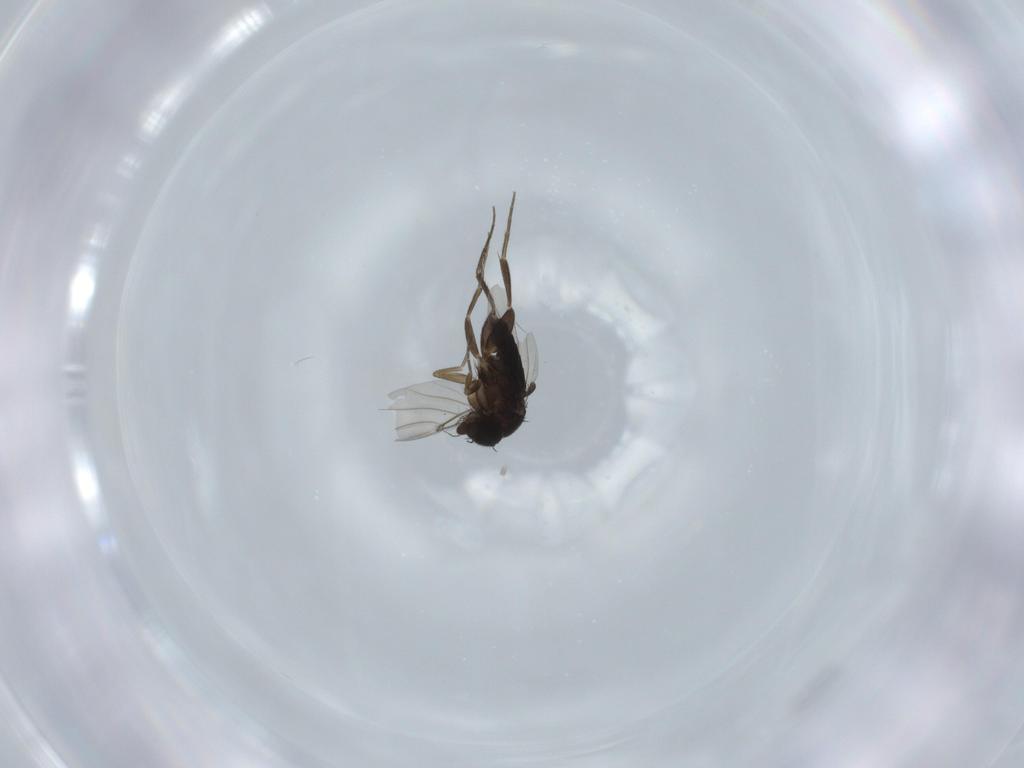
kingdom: Animalia
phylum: Arthropoda
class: Insecta
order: Diptera
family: Phoridae
